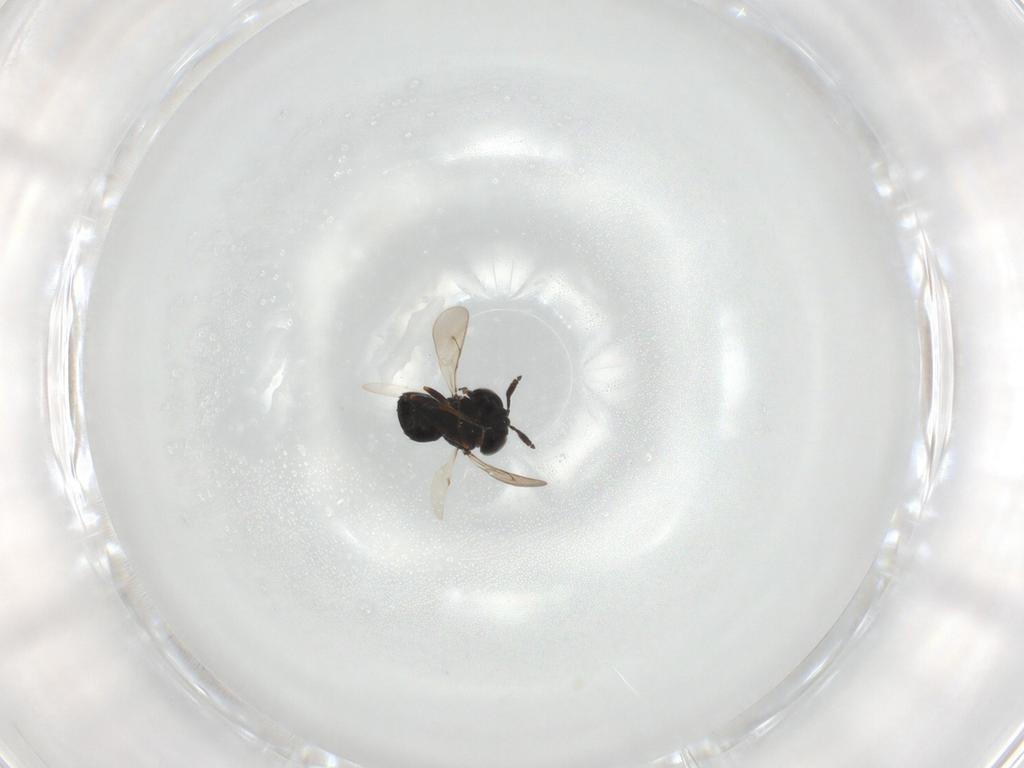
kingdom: Animalia
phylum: Arthropoda
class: Insecta
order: Hymenoptera
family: Scelionidae
